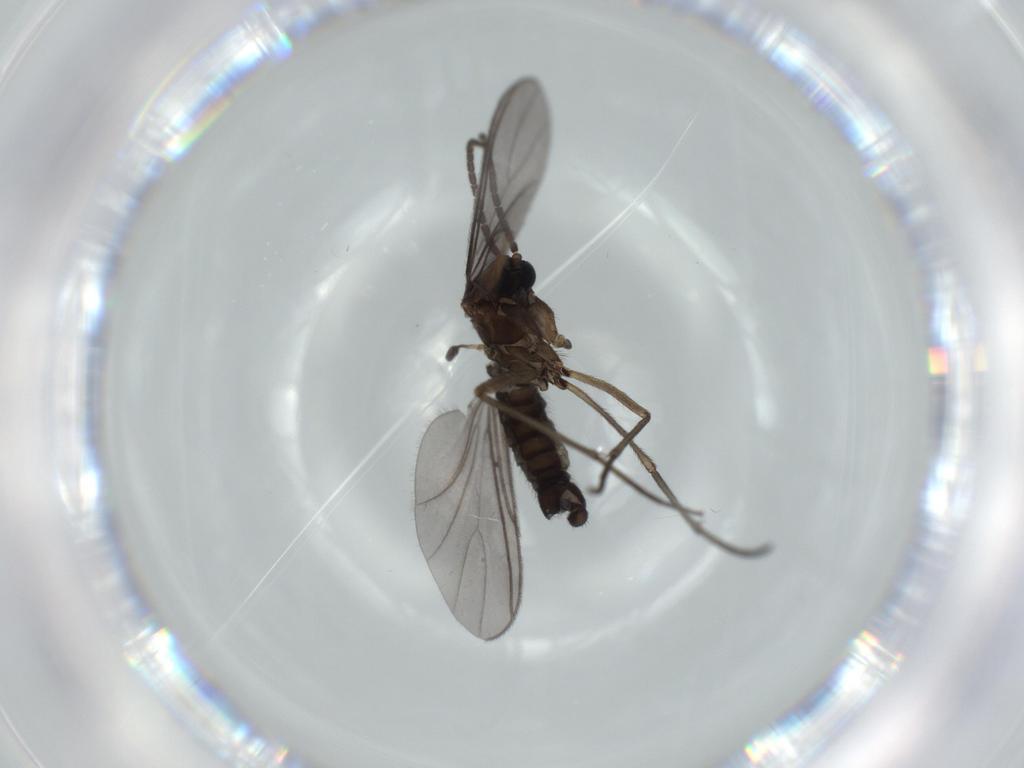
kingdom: Animalia
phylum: Arthropoda
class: Insecta
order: Diptera
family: Sciaridae
